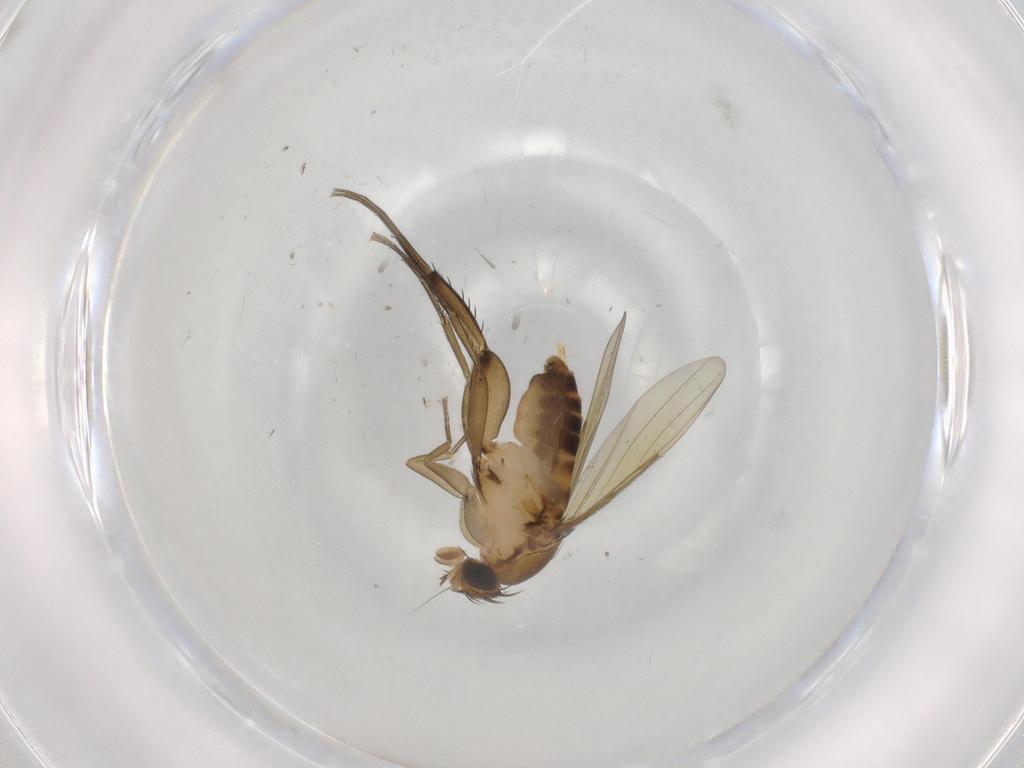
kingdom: Animalia
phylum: Arthropoda
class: Insecta
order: Diptera
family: Phoridae
